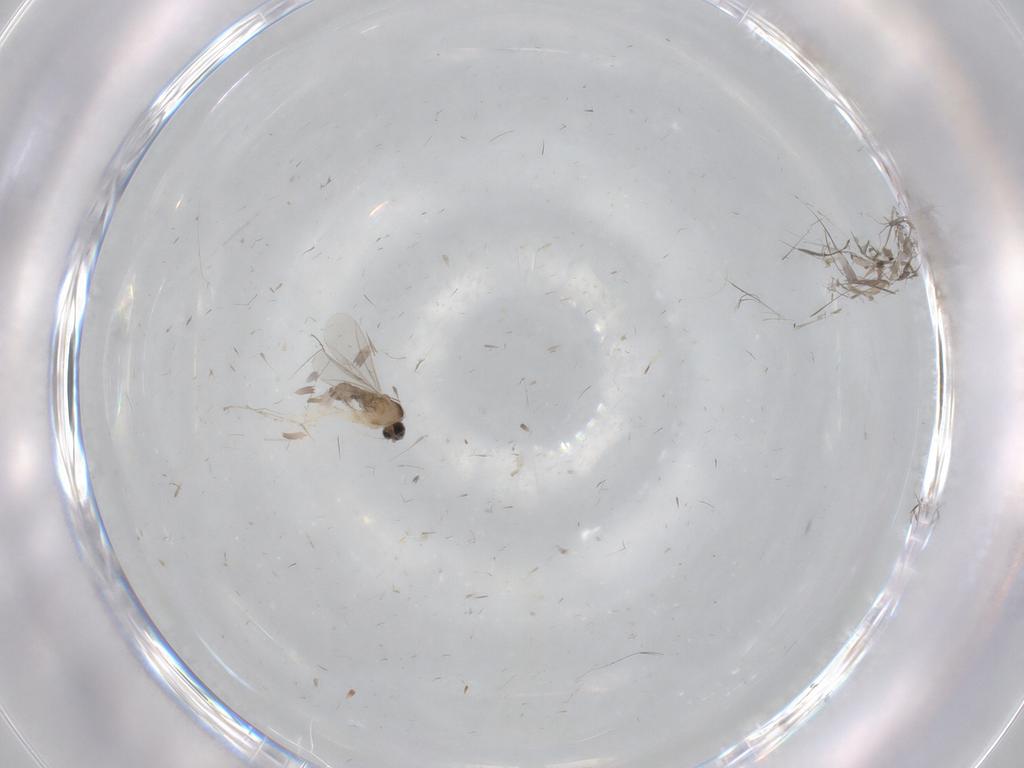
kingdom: Animalia
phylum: Arthropoda
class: Insecta
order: Diptera
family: Cecidomyiidae
